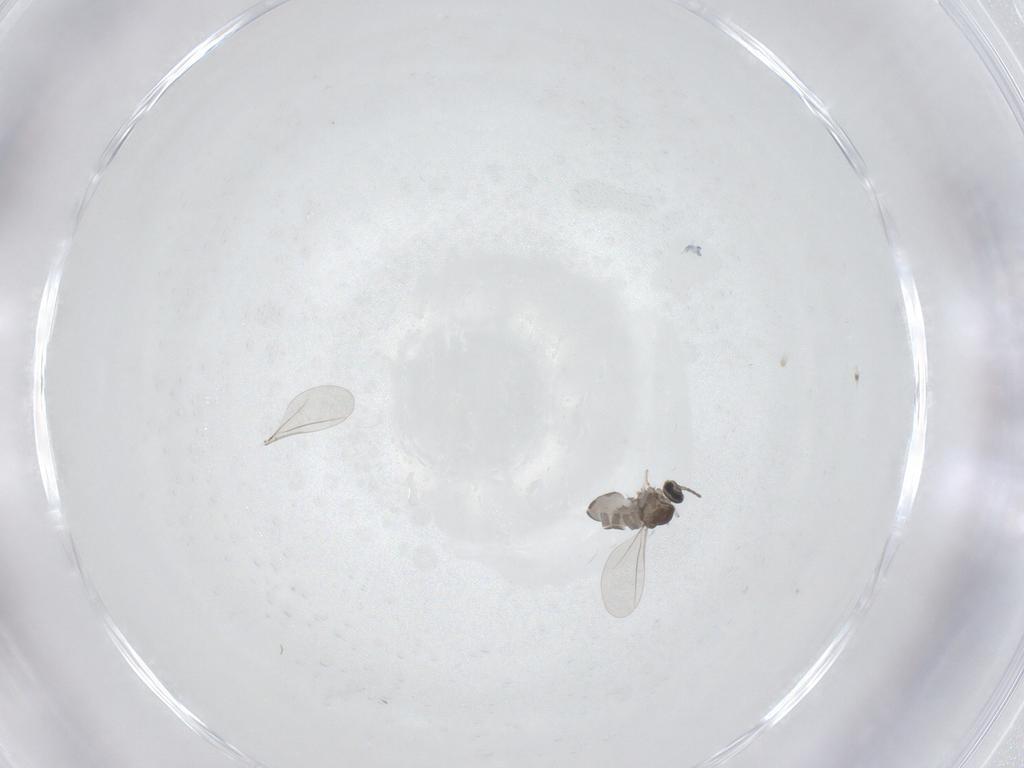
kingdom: Animalia
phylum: Arthropoda
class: Insecta
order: Diptera
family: Cecidomyiidae
